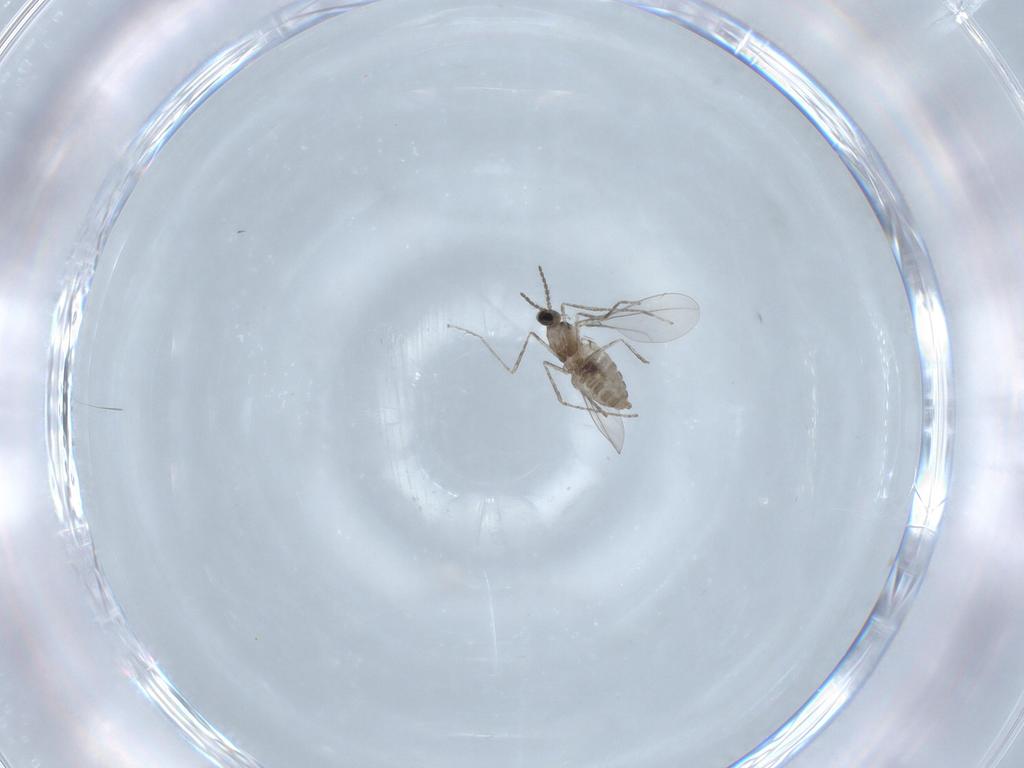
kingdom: Animalia
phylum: Arthropoda
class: Insecta
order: Diptera
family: Cecidomyiidae
